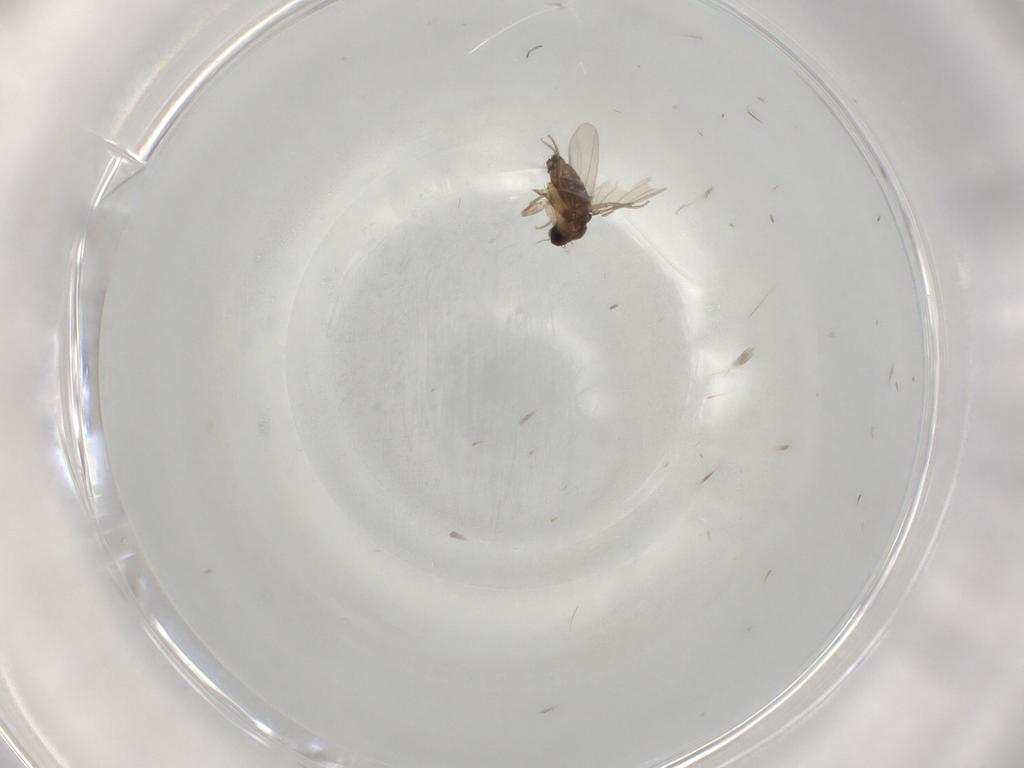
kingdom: Animalia
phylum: Arthropoda
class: Insecta
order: Diptera
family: Phoridae
